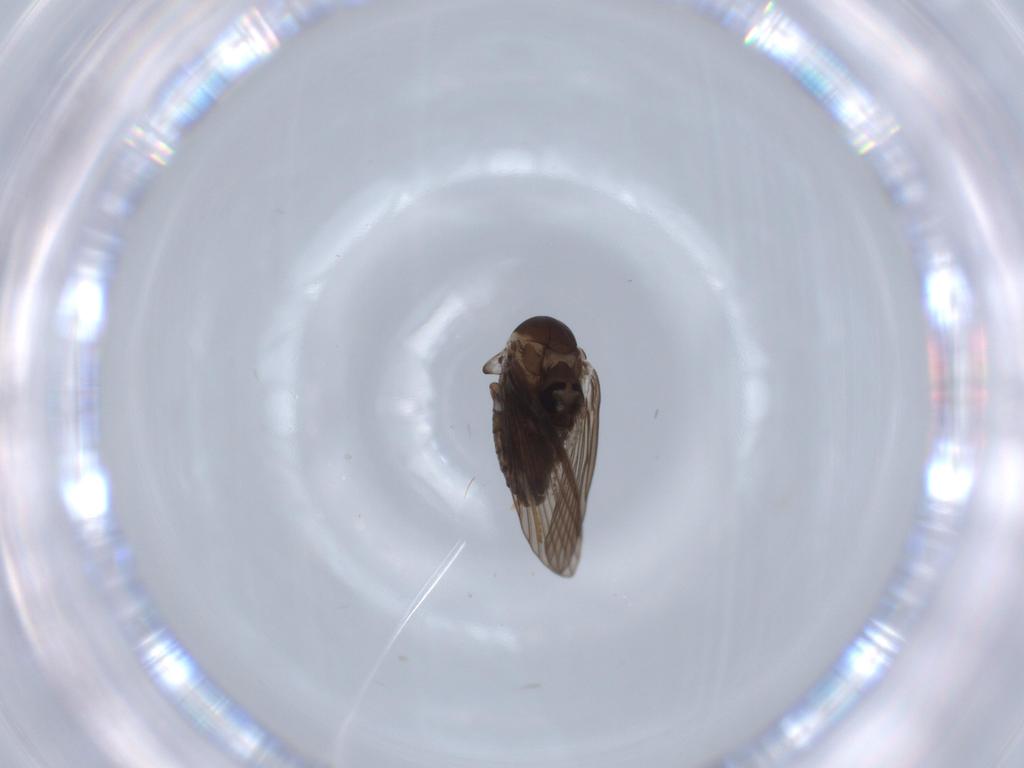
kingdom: Animalia
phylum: Arthropoda
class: Insecta
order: Diptera
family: Psychodidae
